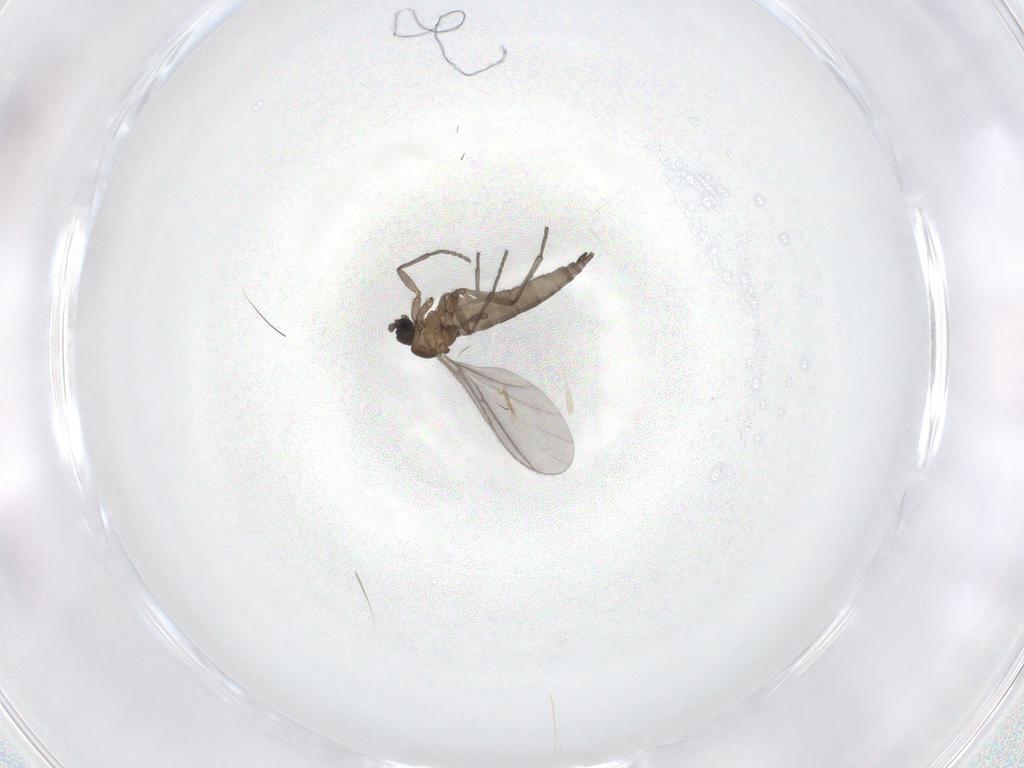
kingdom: Animalia
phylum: Arthropoda
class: Insecta
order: Diptera
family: Sciaridae
